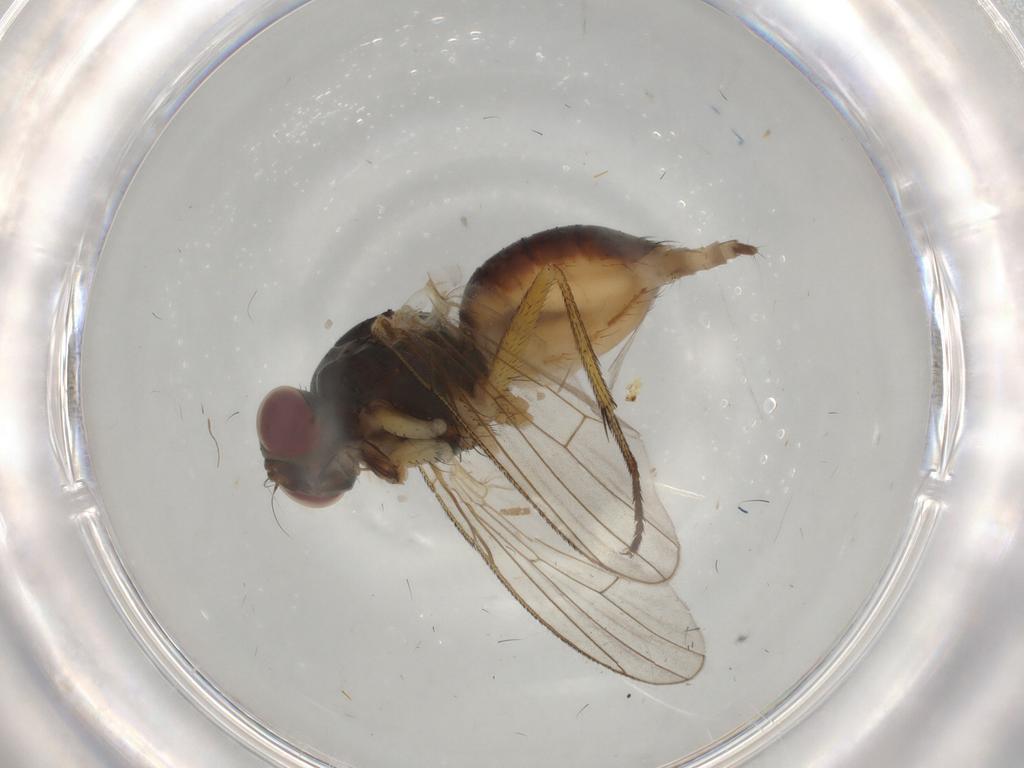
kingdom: Animalia
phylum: Arthropoda
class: Insecta
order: Diptera
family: Muscidae
